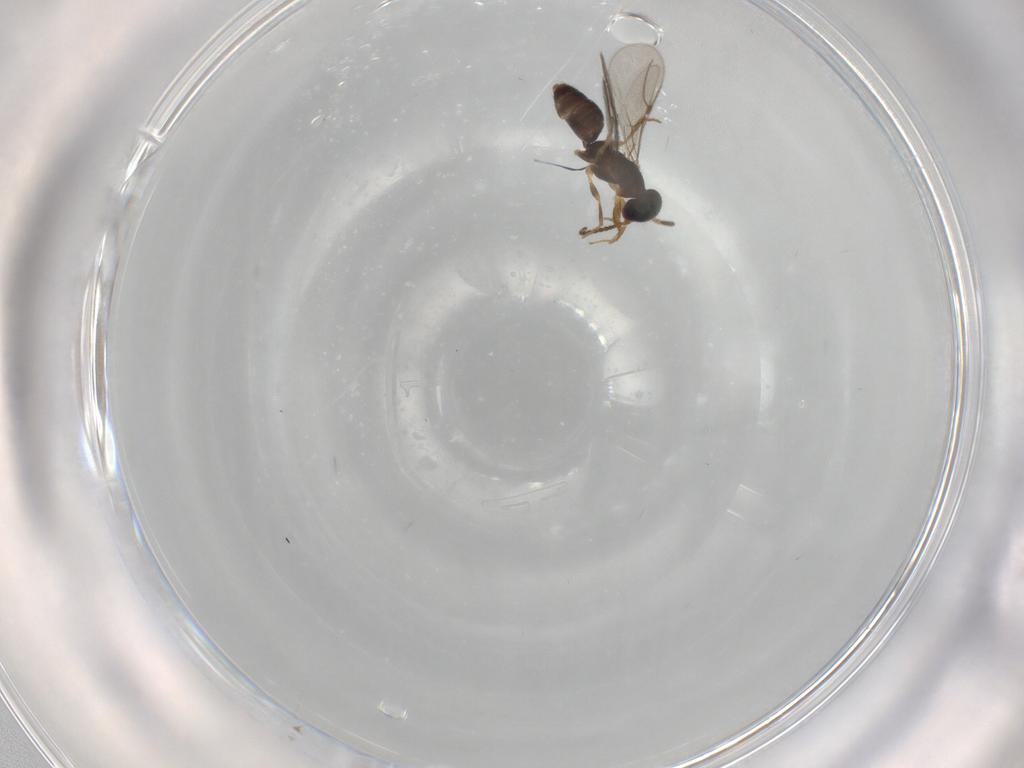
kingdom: Animalia
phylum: Arthropoda
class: Insecta
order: Hymenoptera
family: Bethylidae
